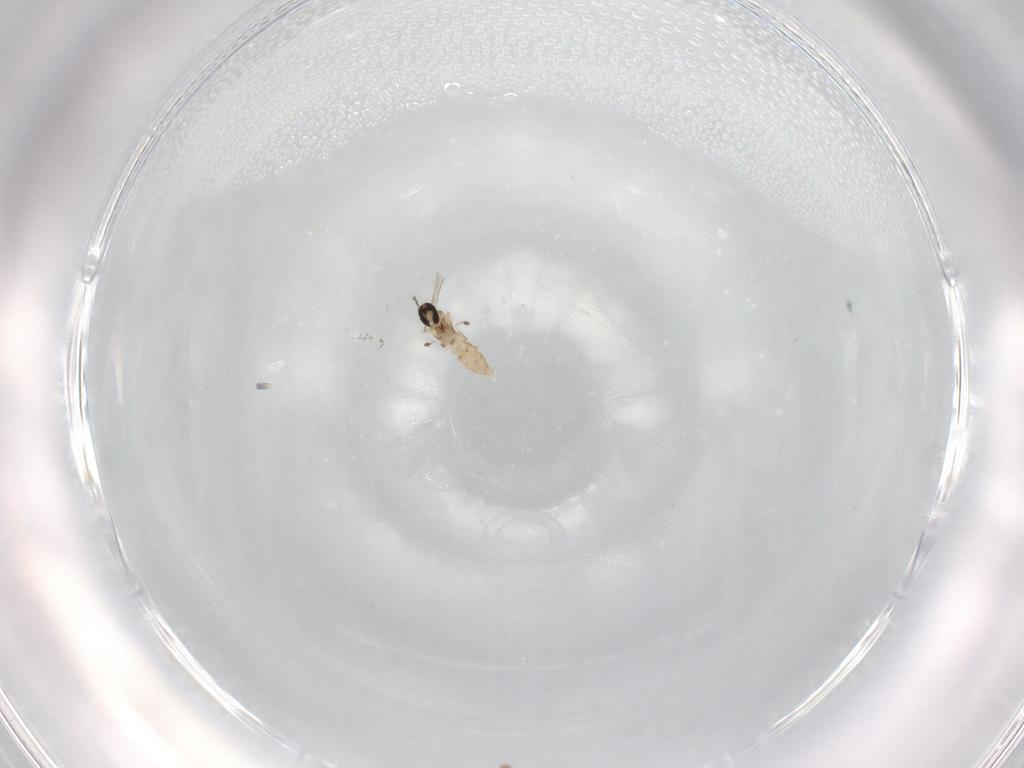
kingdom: Animalia
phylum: Arthropoda
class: Insecta
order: Diptera
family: Cecidomyiidae
